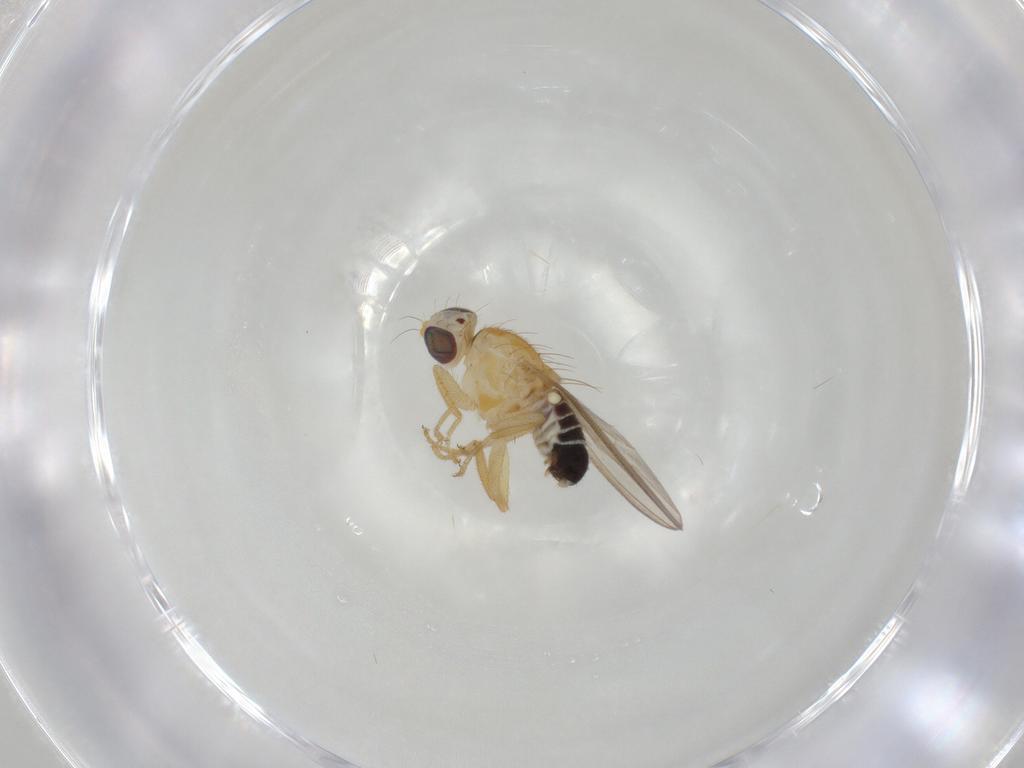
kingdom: Animalia
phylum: Arthropoda
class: Insecta
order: Diptera
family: Chyromyidae
